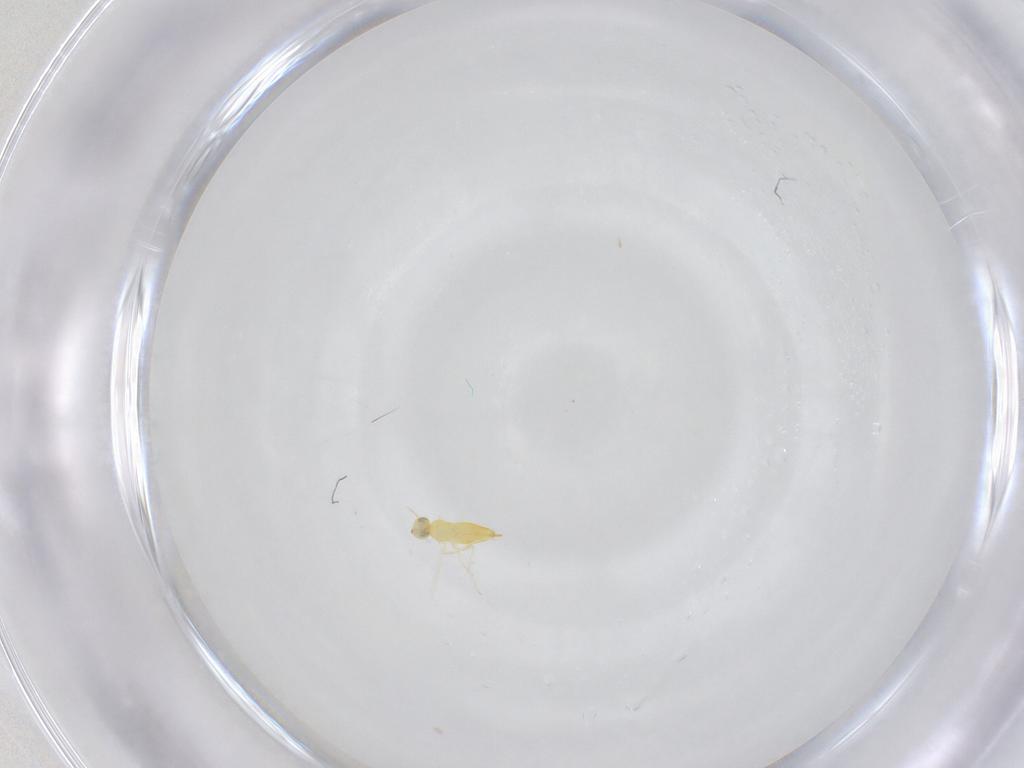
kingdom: Animalia
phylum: Arthropoda
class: Insecta
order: Hymenoptera
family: Aphelinidae
